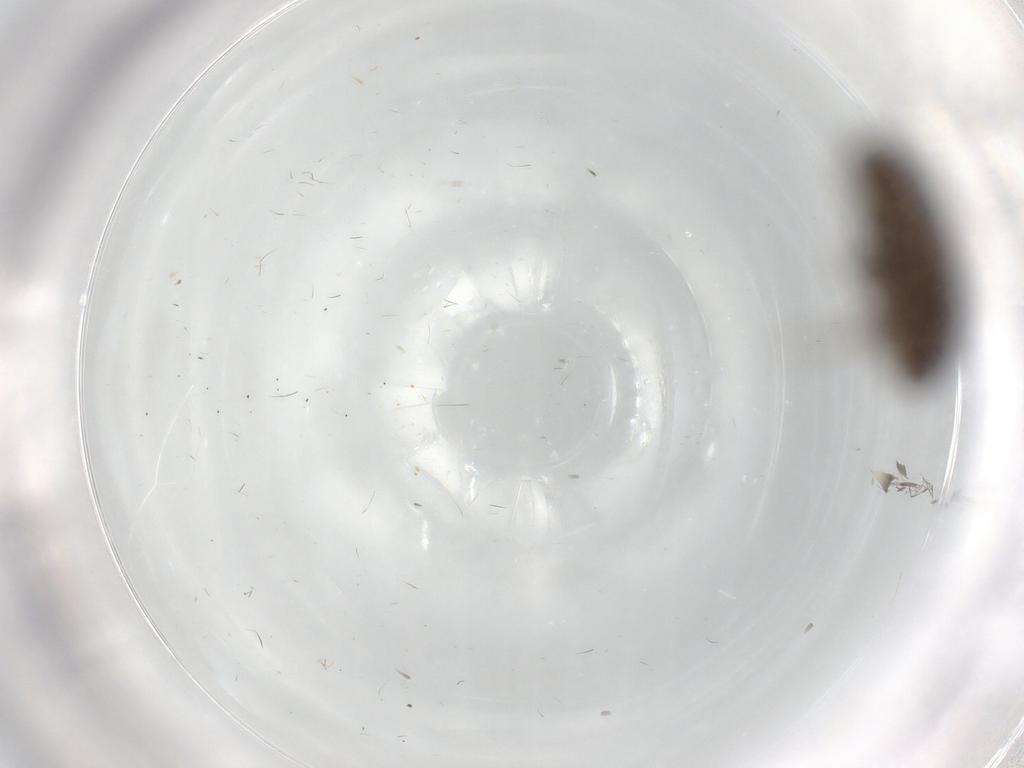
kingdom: Animalia
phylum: Arthropoda
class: Insecta
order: Hemiptera
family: Cicadellidae
